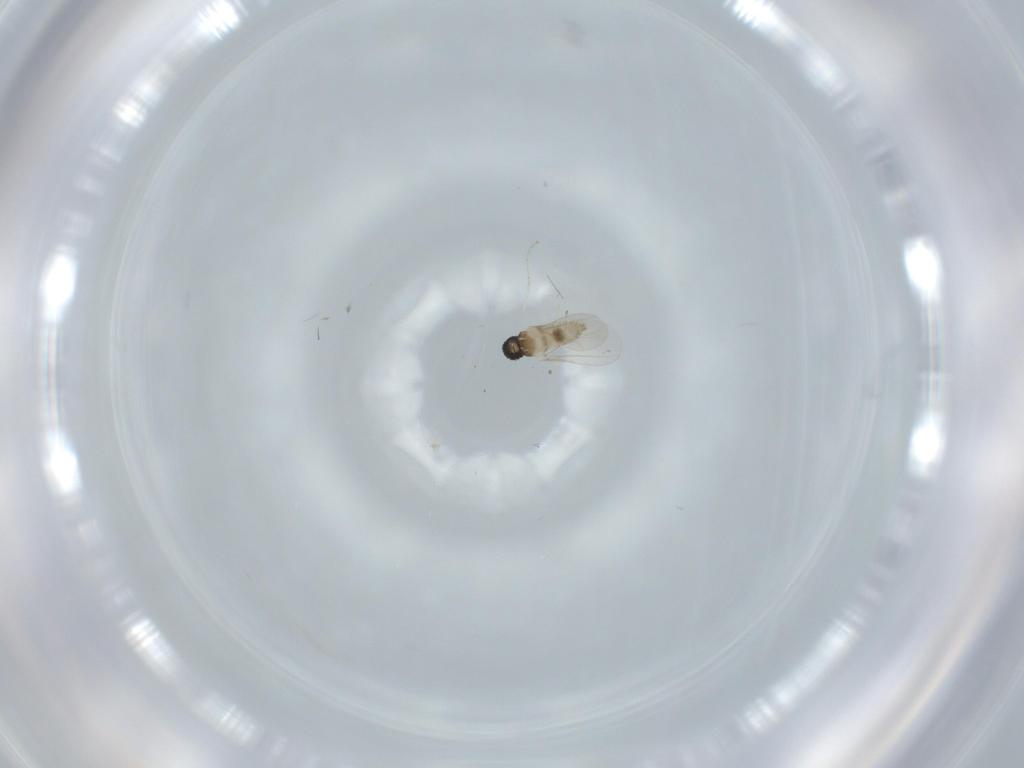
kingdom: Animalia
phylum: Arthropoda
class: Insecta
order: Diptera
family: Cecidomyiidae
